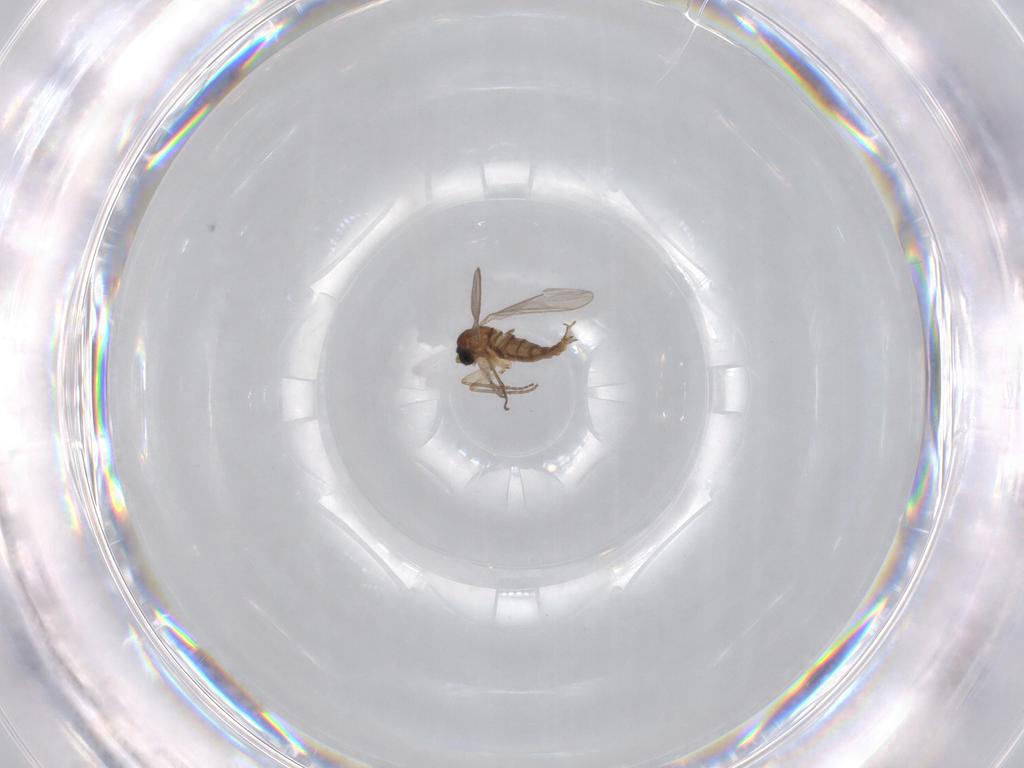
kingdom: Animalia
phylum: Arthropoda
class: Insecta
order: Diptera
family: Sciaridae
